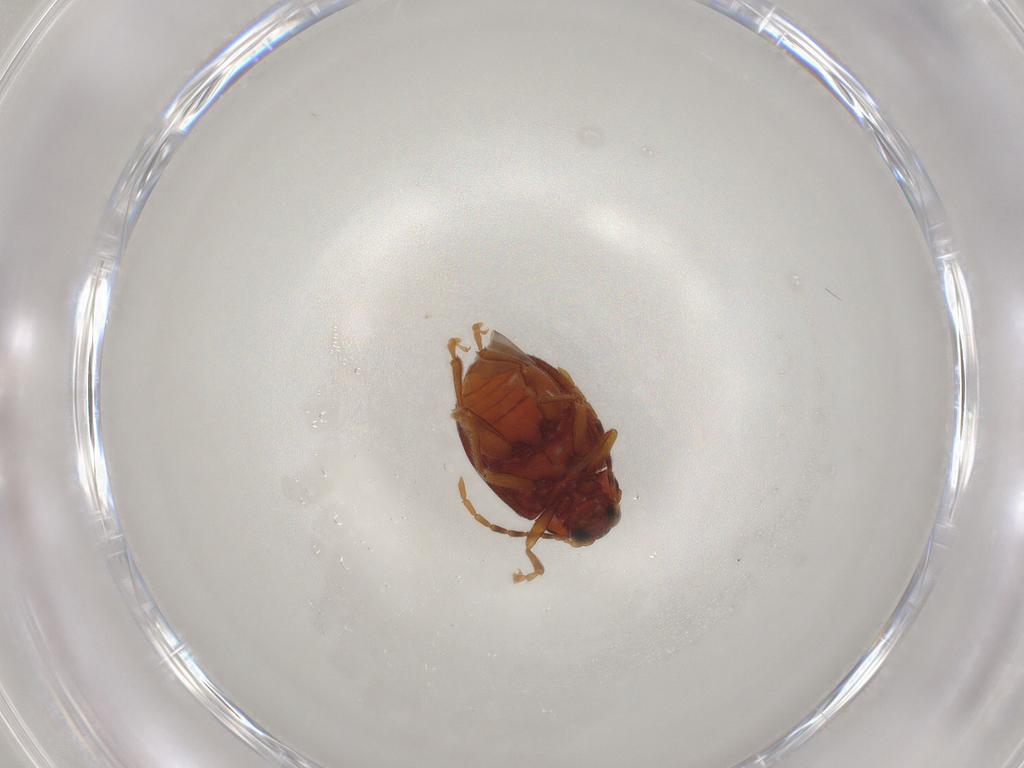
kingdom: Animalia
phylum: Arthropoda
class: Insecta
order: Coleoptera
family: Chrysomelidae
